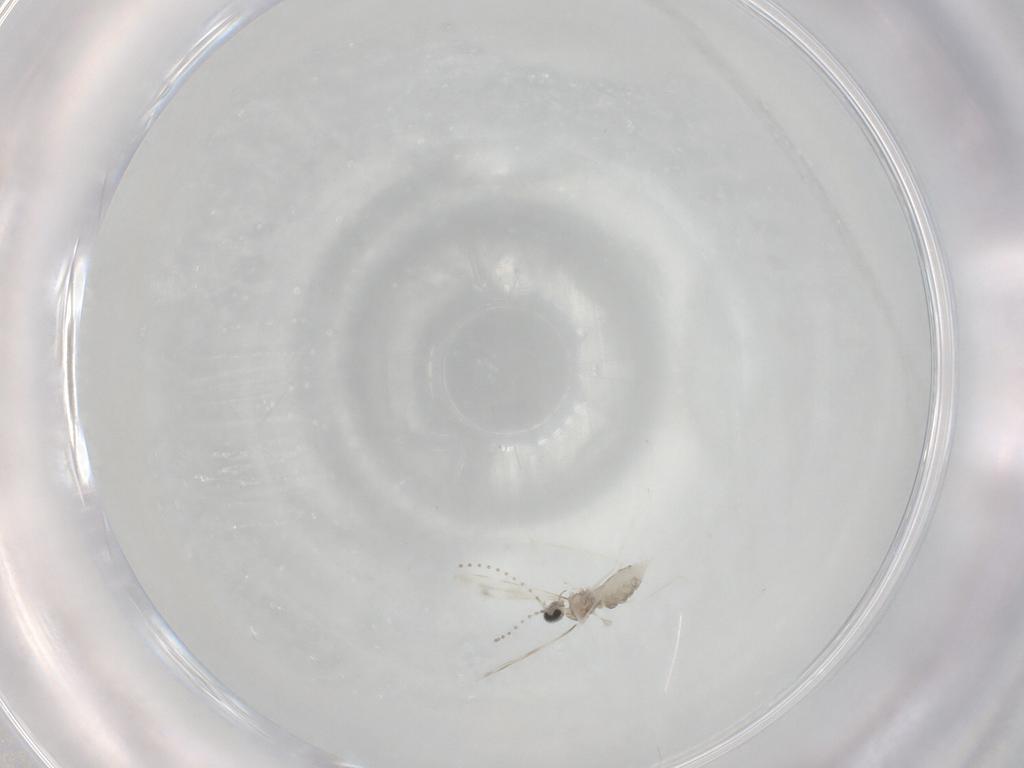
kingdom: Animalia
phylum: Arthropoda
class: Insecta
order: Diptera
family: Cecidomyiidae
